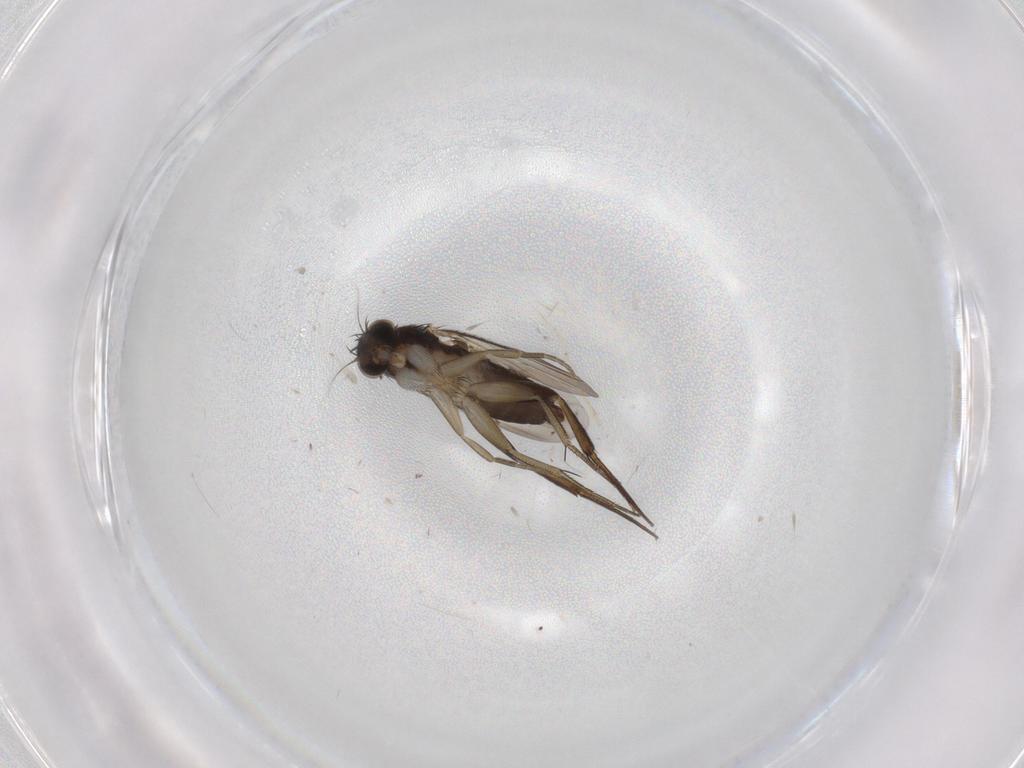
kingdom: Animalia
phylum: Arthropoda
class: Insecta
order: Diptera
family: Phoridae
